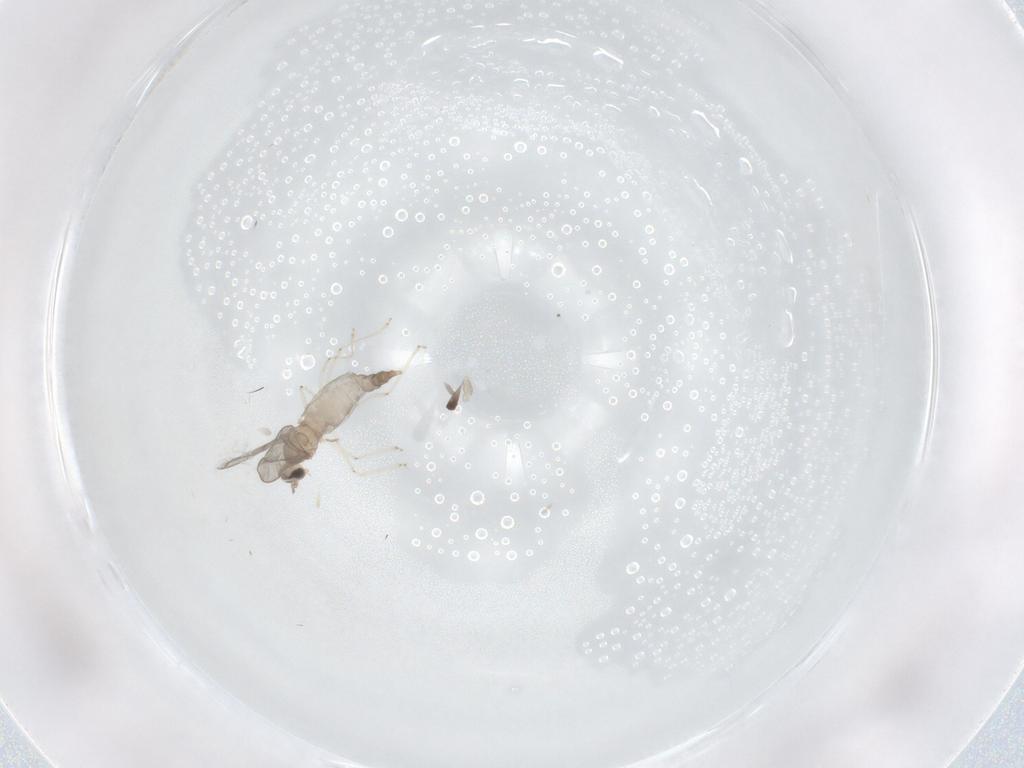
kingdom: Animalia
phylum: Arthropoda
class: Insecta
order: Diptera
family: Cecidomyiidae
